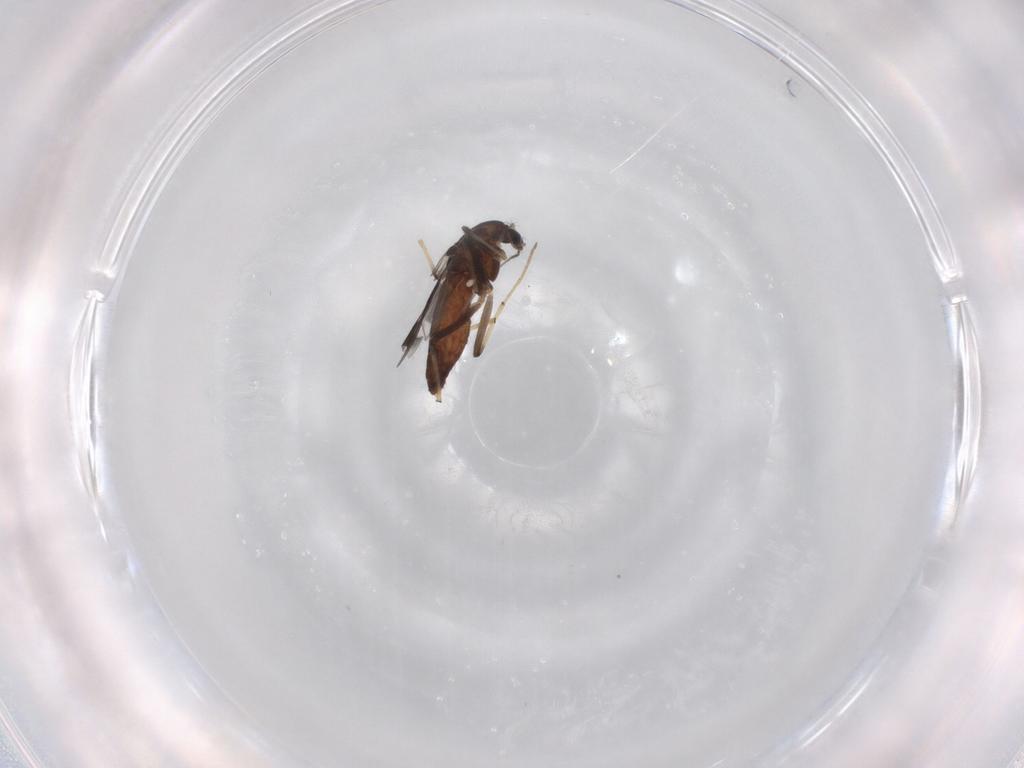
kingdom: Animalia
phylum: Arthropoda
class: Insecta
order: Diptera
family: Chironomidae
